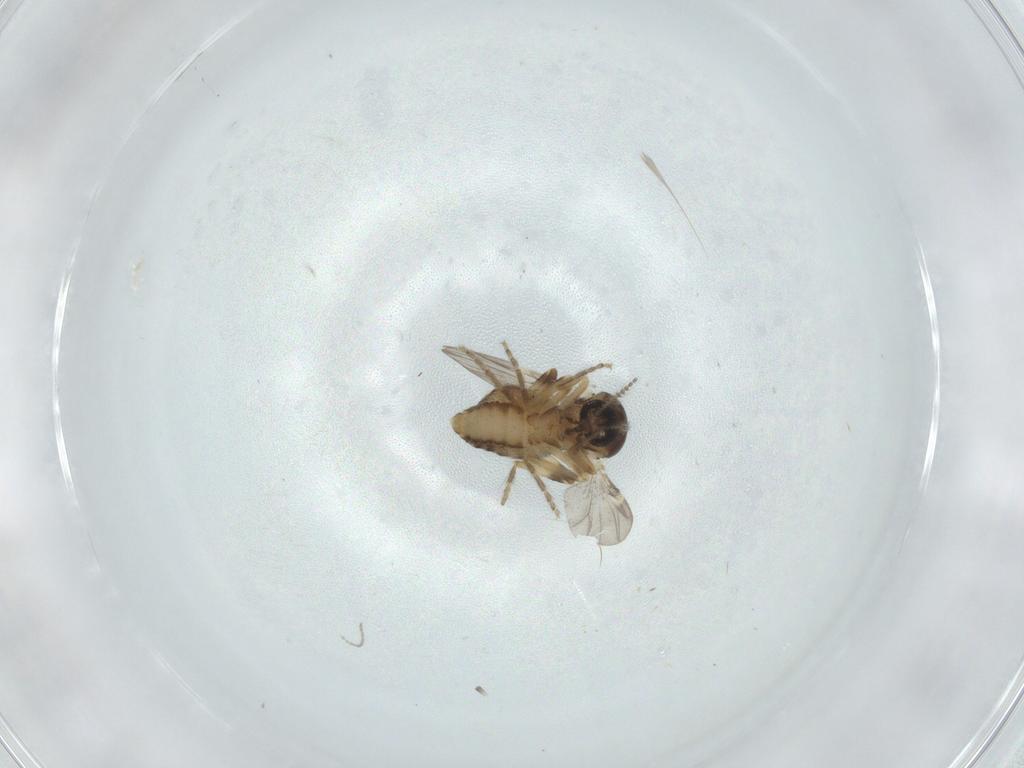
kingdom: Animalia
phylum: Arthropoda
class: Insecta
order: Diptera
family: Ceratopogonidae
